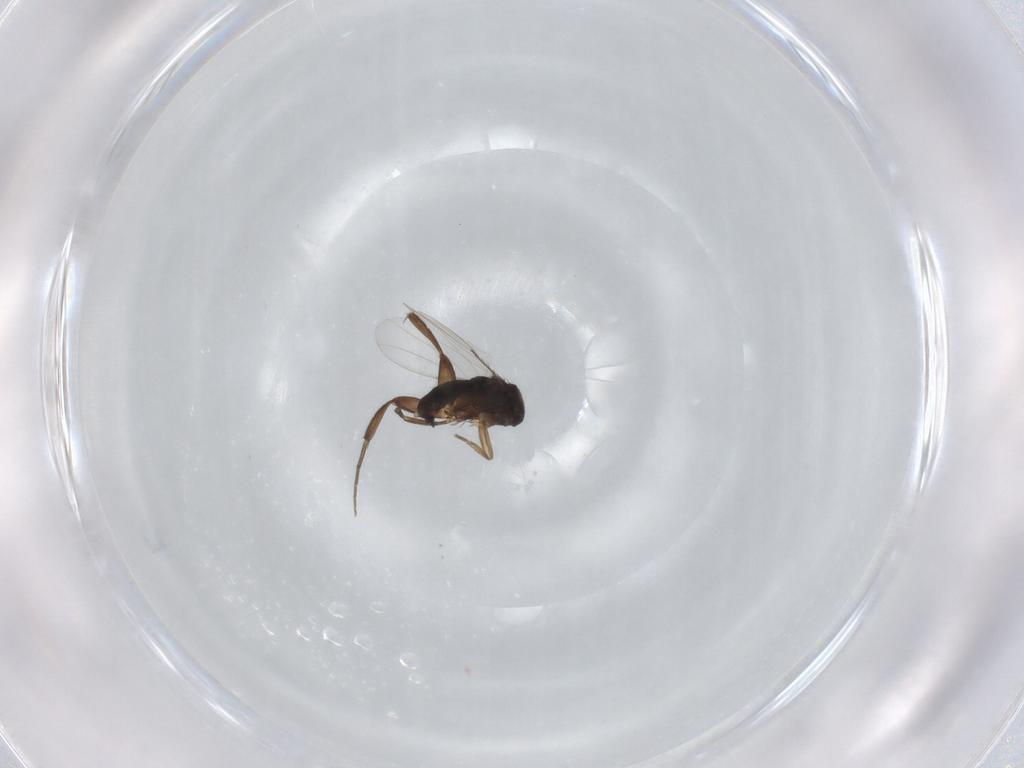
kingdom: Animalia
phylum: Arthropoda
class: Insecta
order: Diptera
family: Phoridae
